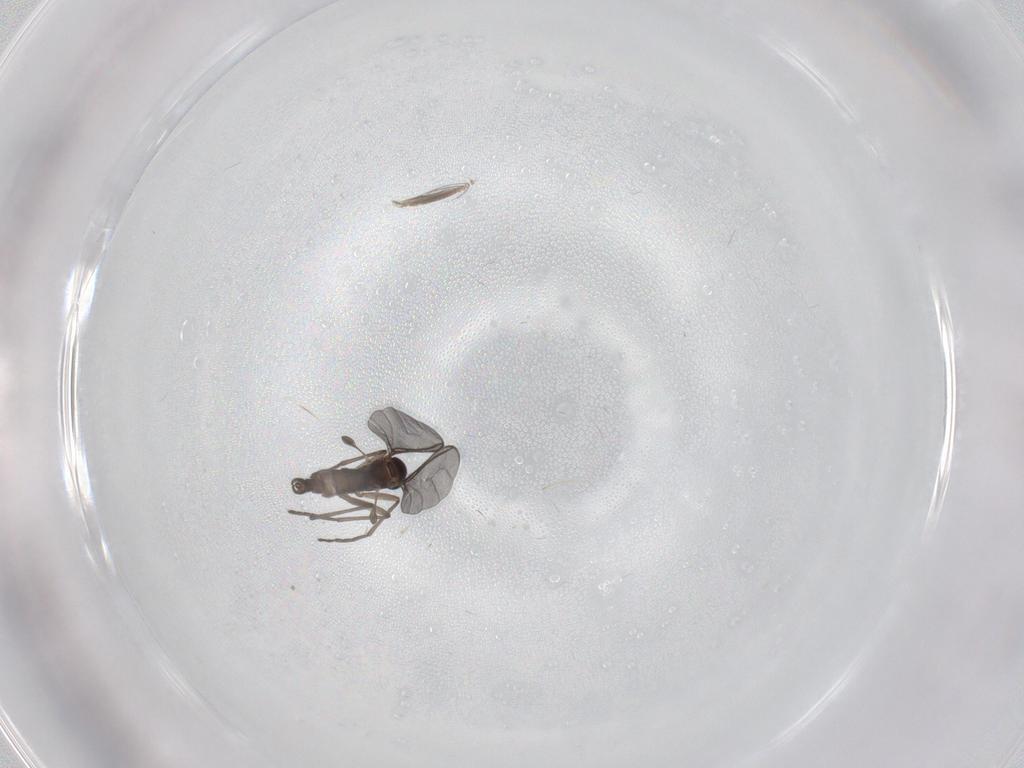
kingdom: Animalia
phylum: Arthropoda
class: Insecta
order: Diptera
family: Sciaridae
